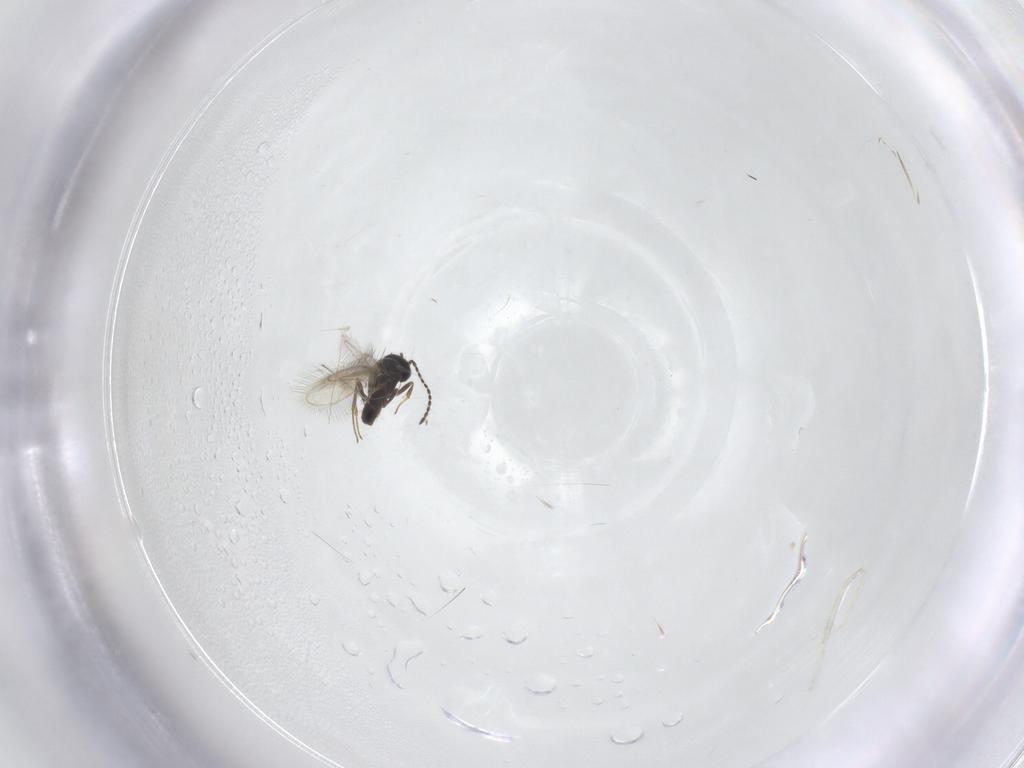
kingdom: Animalia
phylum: Arthropoda
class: Insecta
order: Hymenoptera
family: Scelionidae
